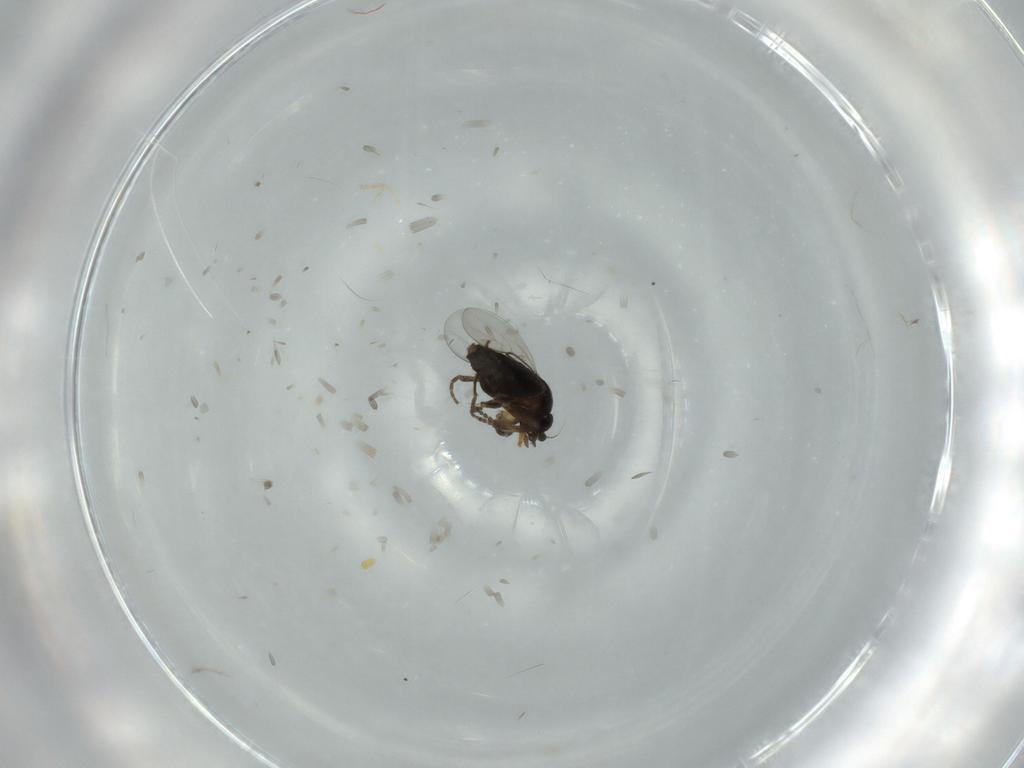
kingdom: Animalia
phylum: Arthropoda
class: Insecta
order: Diptera
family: Phoridae
